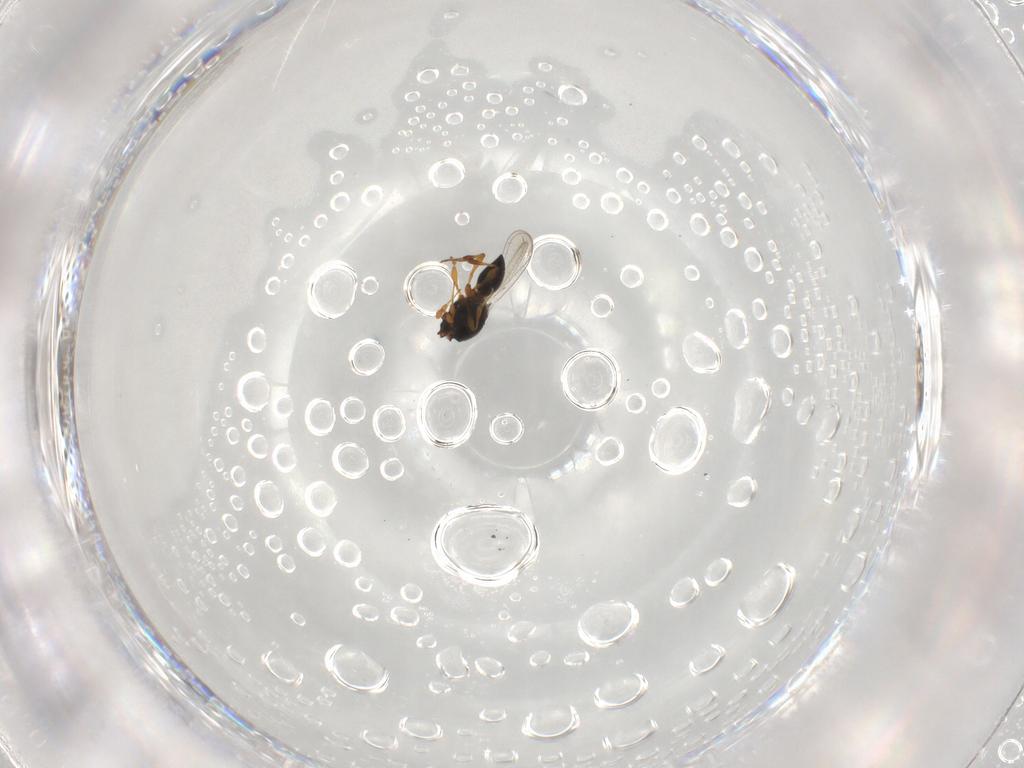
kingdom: Animalia
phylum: Arthropoda
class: Insecta
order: Hymenoptera
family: Platygastridae
